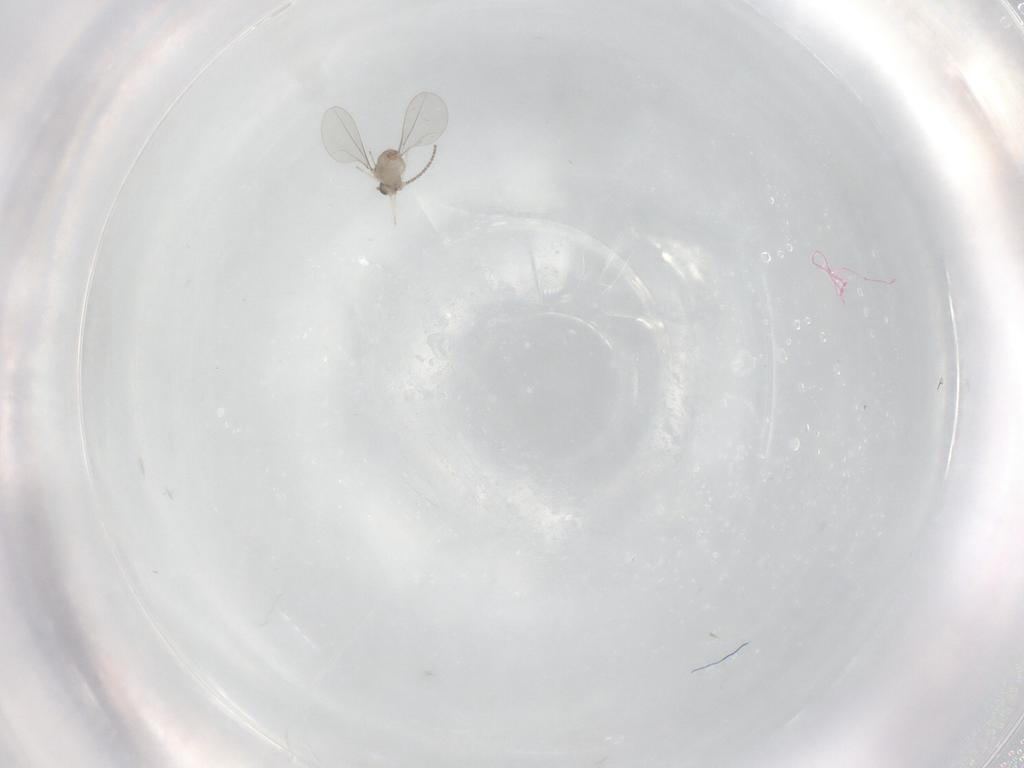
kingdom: Animalia
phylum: Arthropoda
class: Insecta
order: Diptera
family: Cecidomyiidae
